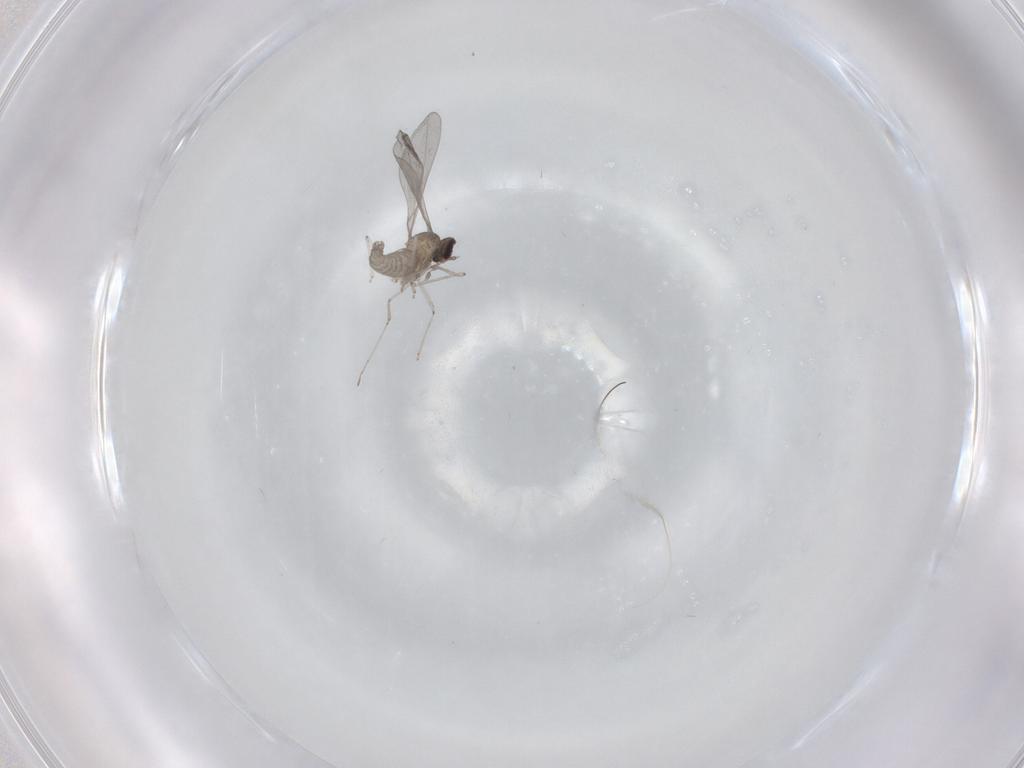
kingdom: Animalia
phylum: Arthropoda
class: Insecta
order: Diptera
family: Cecidomyiidae
